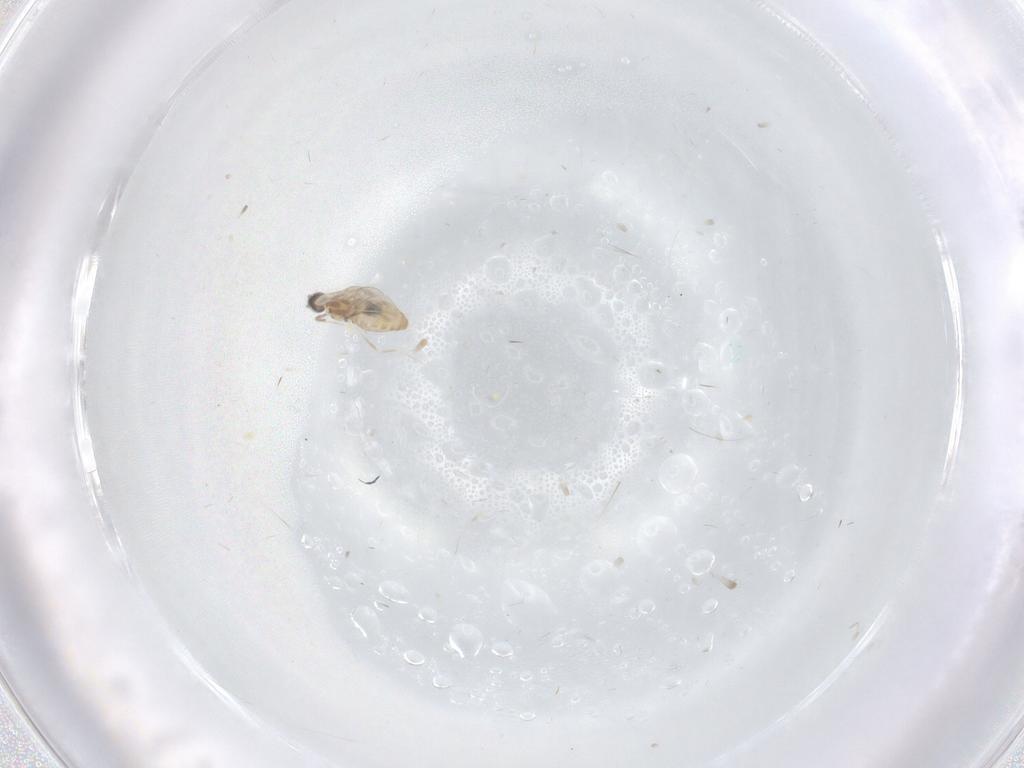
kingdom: Animalia
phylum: Arthropoda
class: Insecta
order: Diptera
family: Cecidomyiidae
